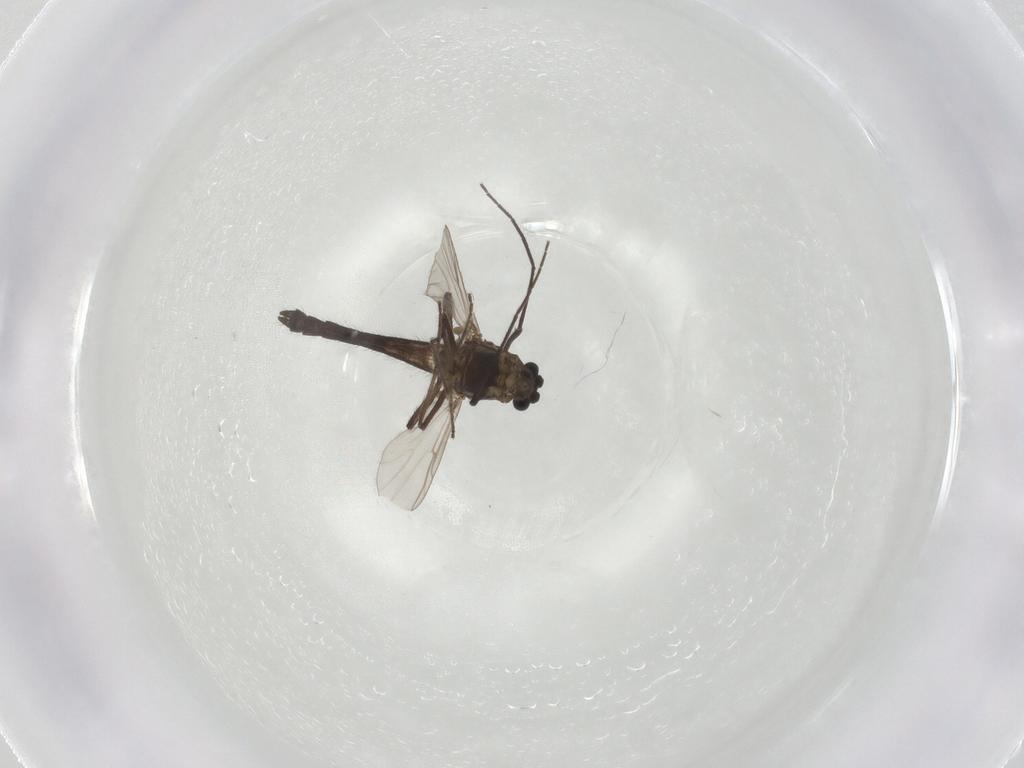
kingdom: Animalia
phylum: Arthropoda
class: Insecta
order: Diptera
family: Chironomidae
